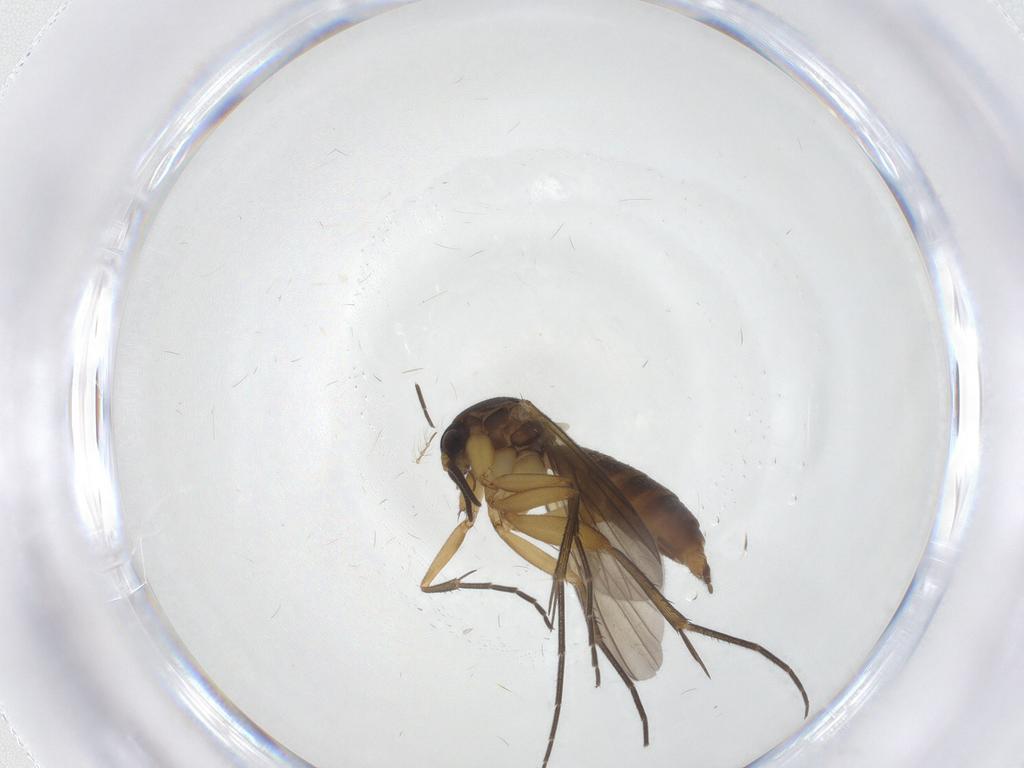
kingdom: Animalia
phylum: Arthropoda
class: Insecta
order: Diptera
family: Mycetophilidae
